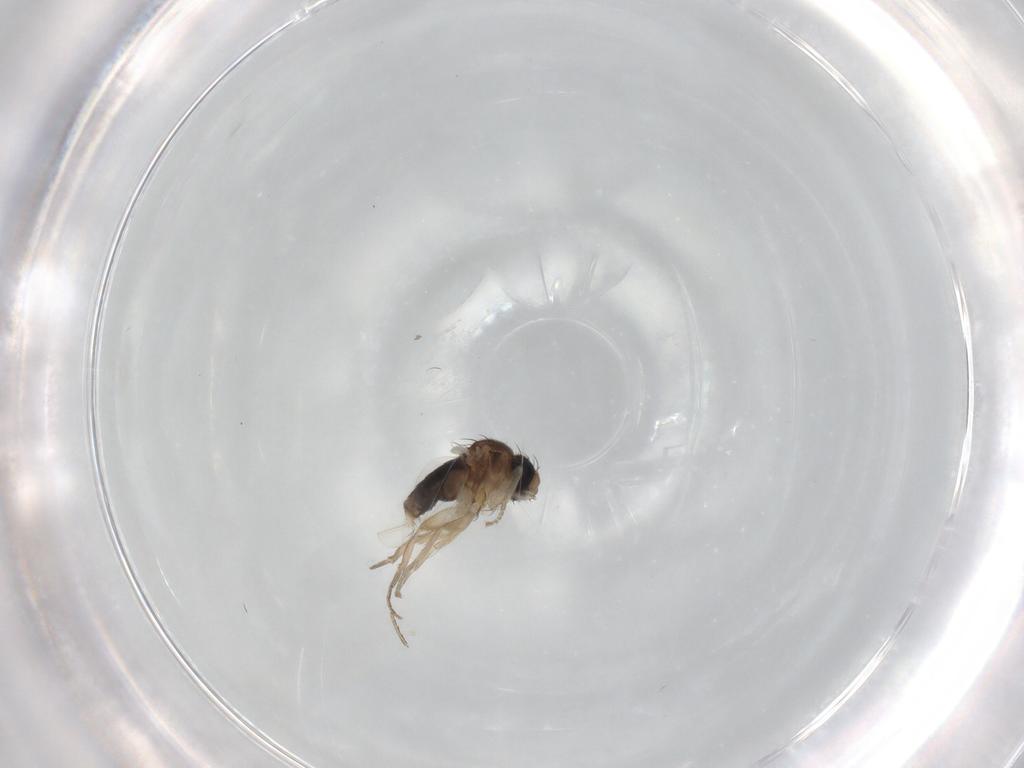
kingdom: Animalia
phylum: Arthropoda
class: Insecta
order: Diptera
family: Phoridae
